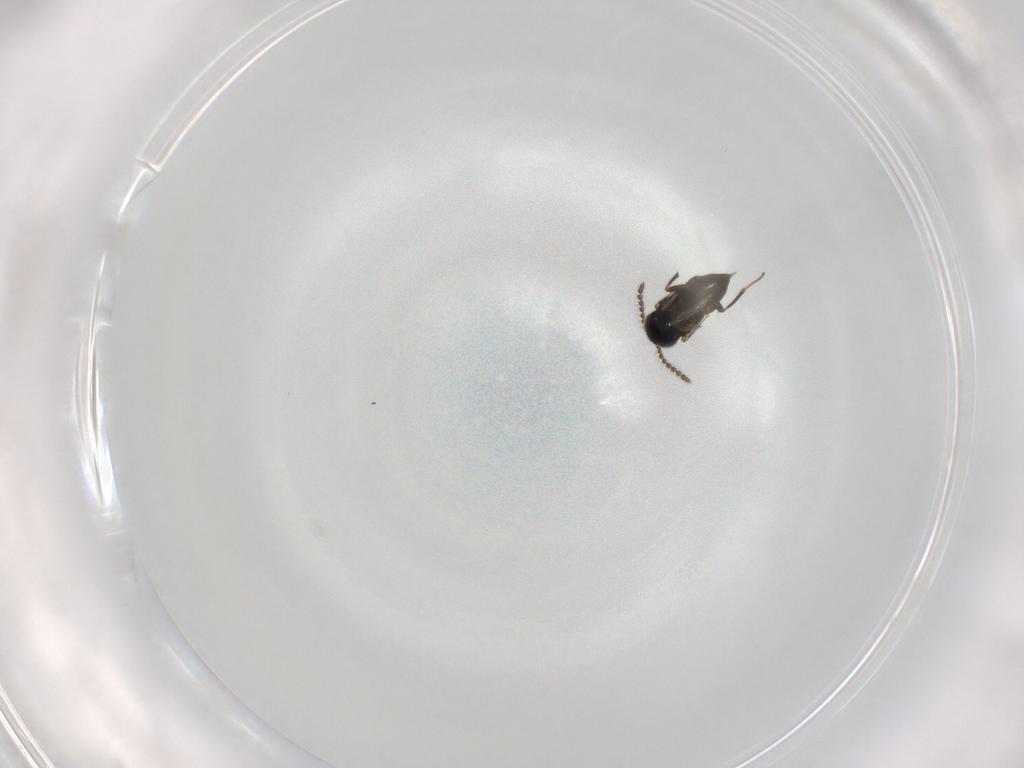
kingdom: Animalia
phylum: Arthropoda
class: Insecta
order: Hymenoptera
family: Encyrtidae
